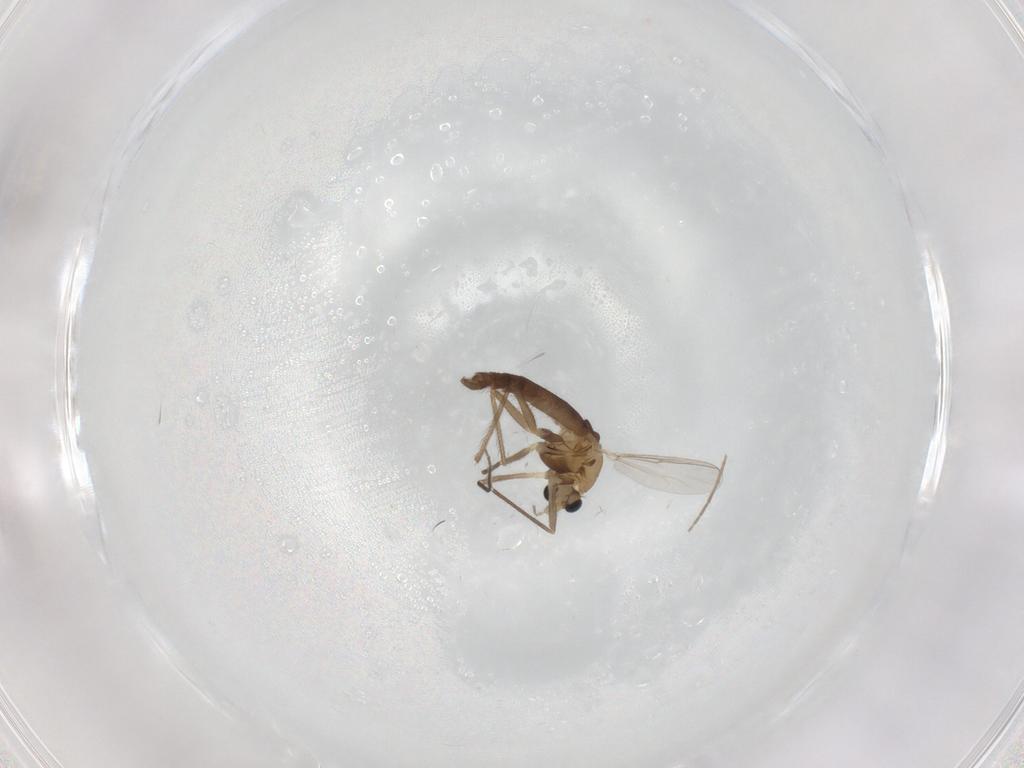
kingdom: Animalia
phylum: Arthropoda
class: Insecta
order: Diptera
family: Chironomidae
